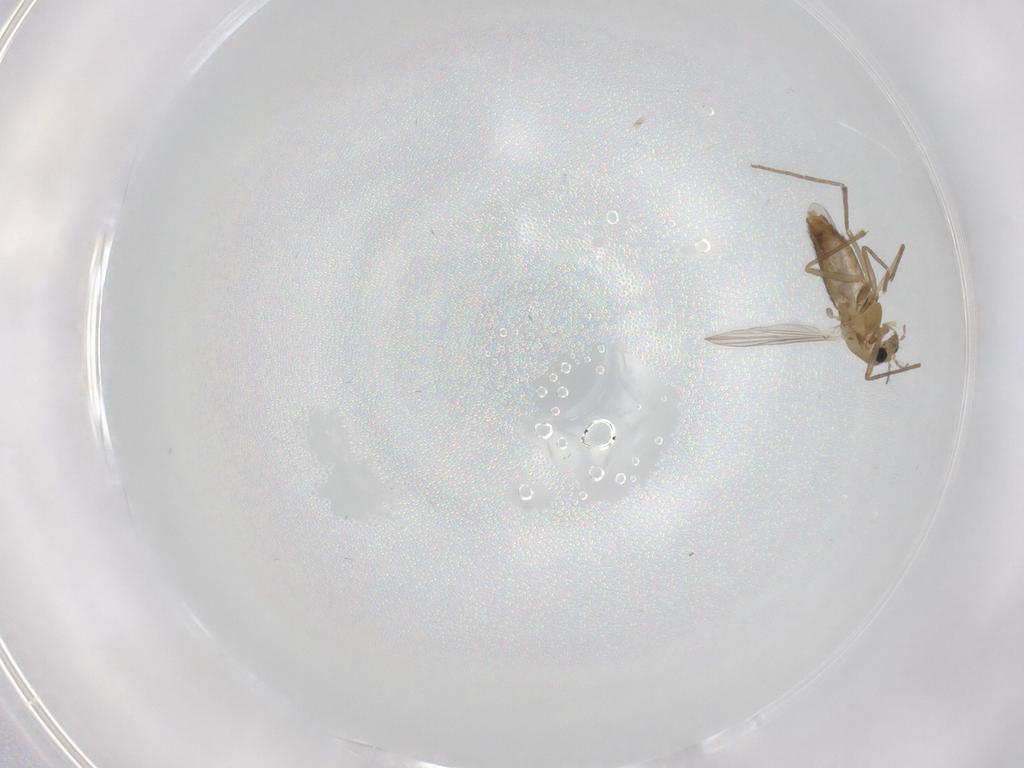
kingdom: Animalia
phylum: Arthropoda
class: Insecta
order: Diptera
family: Chironomidae
